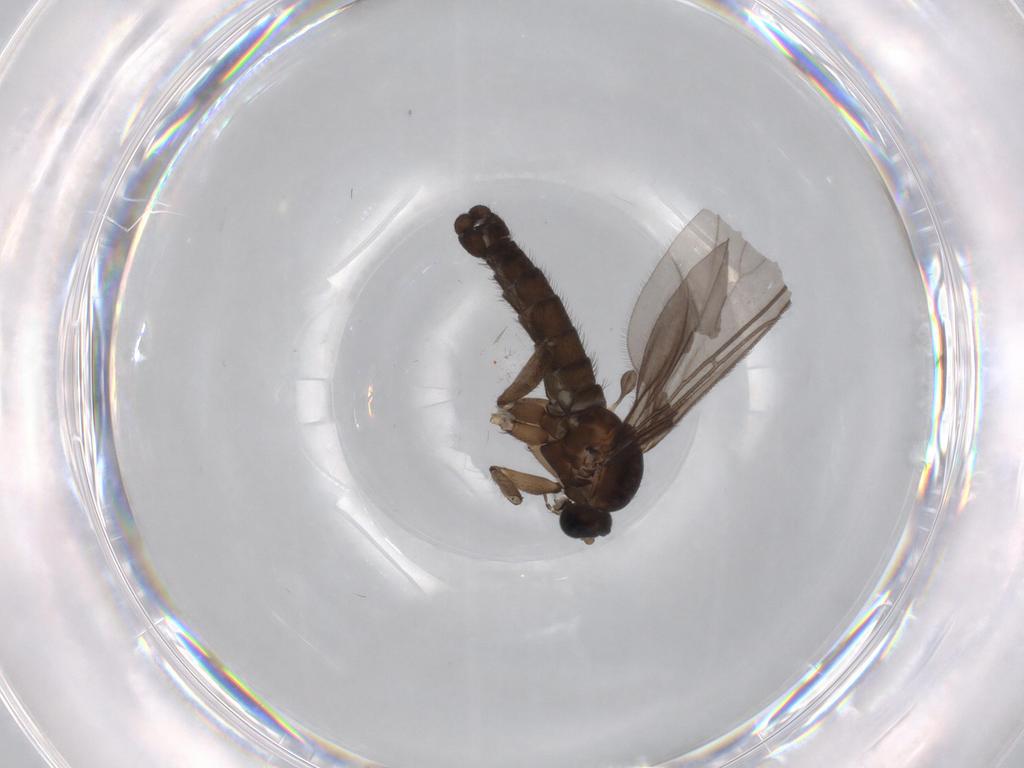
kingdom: Animalia
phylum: Arthropoda
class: Insecta
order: Diptera
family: Sciaridae
